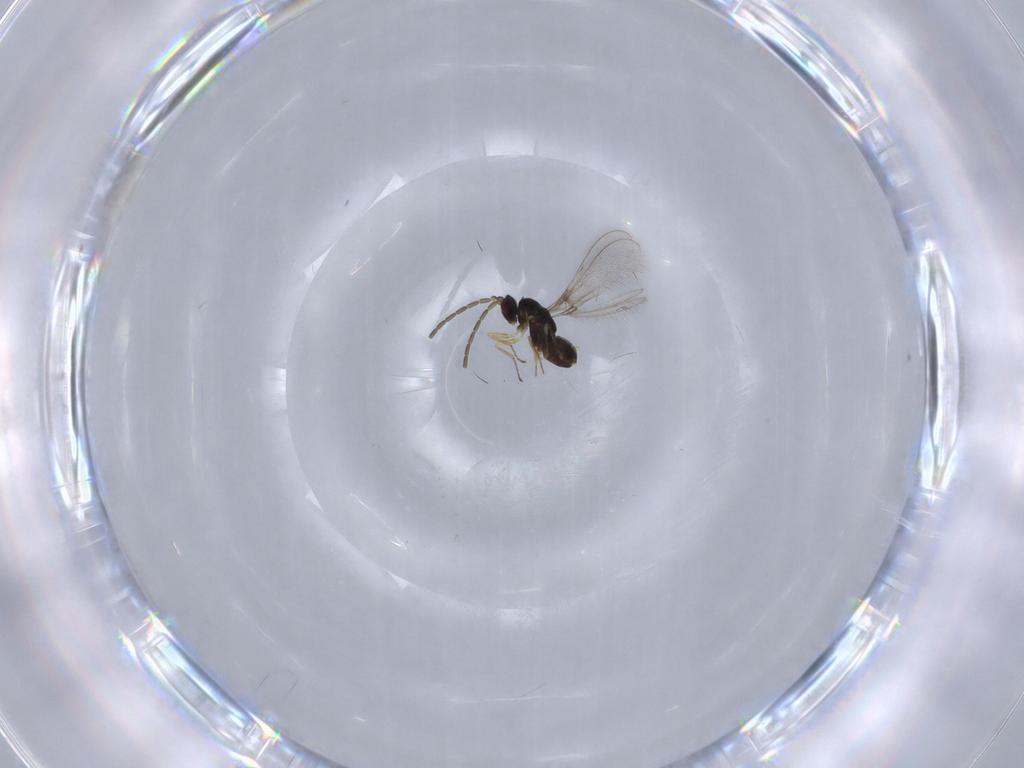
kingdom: Animalia
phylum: Arthropoda
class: Insecta
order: Hymenoptera
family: Mymaridae
